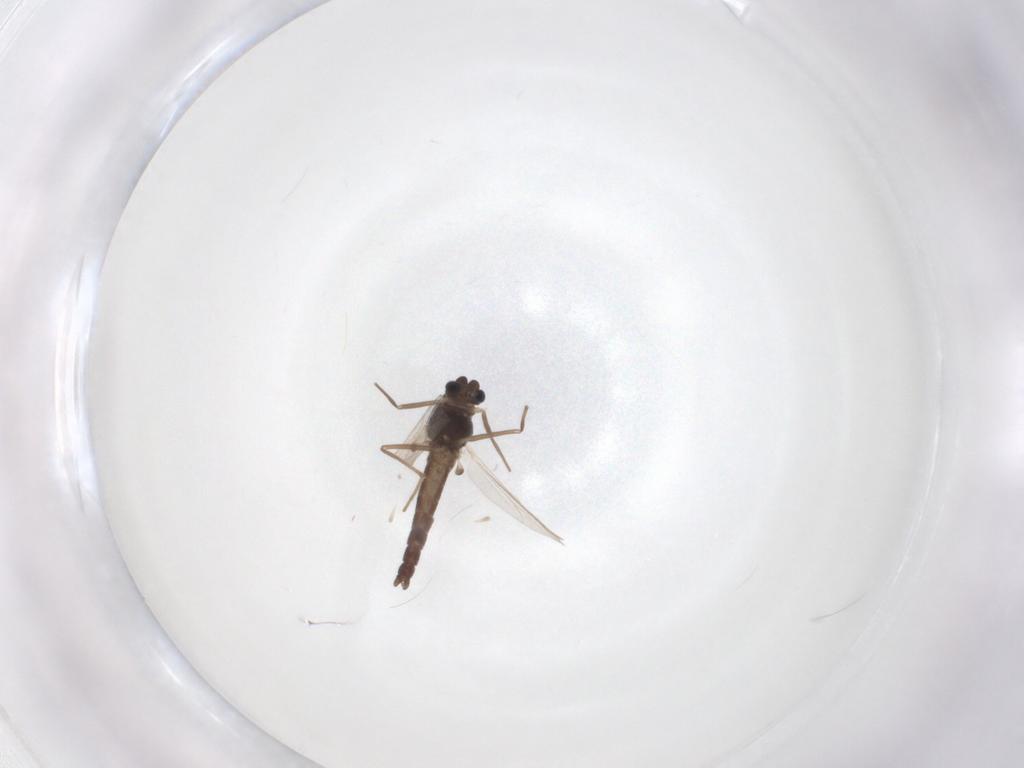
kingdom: Animalia
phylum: Arthropoda
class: Insecta
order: Diptera
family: Chironomidae
